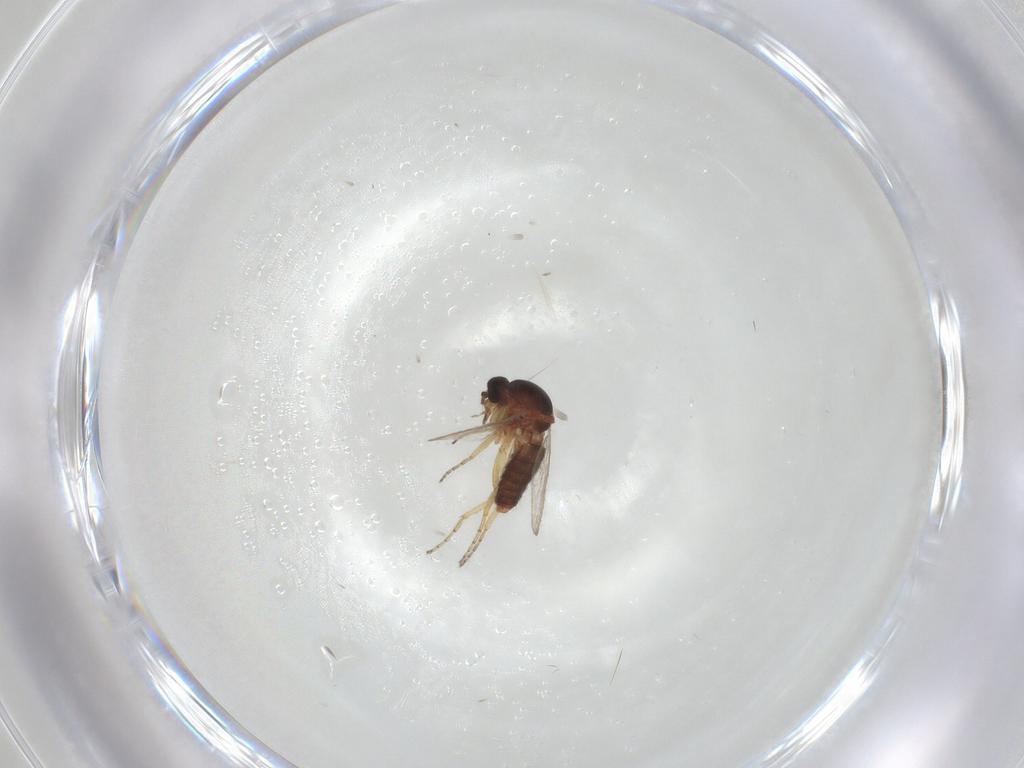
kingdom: Animalia
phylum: Arthropoda
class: Insecta
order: Diptera
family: Ceratopogonidae
